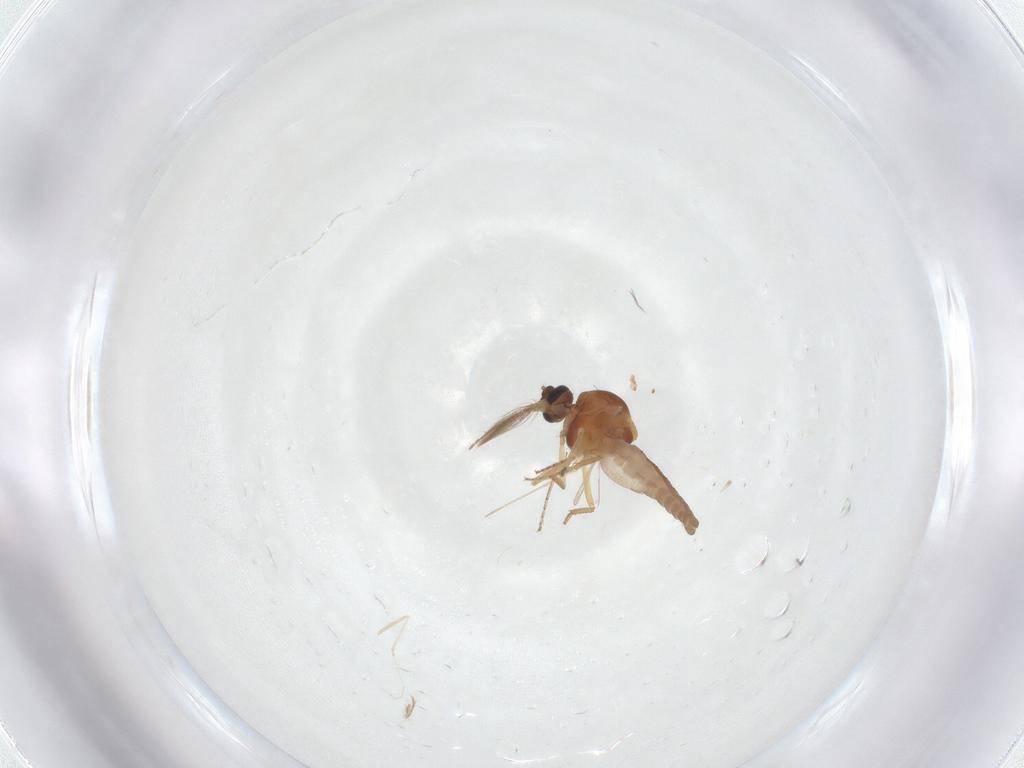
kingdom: Animalia
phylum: Arthropoda
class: Insecta
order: Diptera
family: Ceratopogonidae
